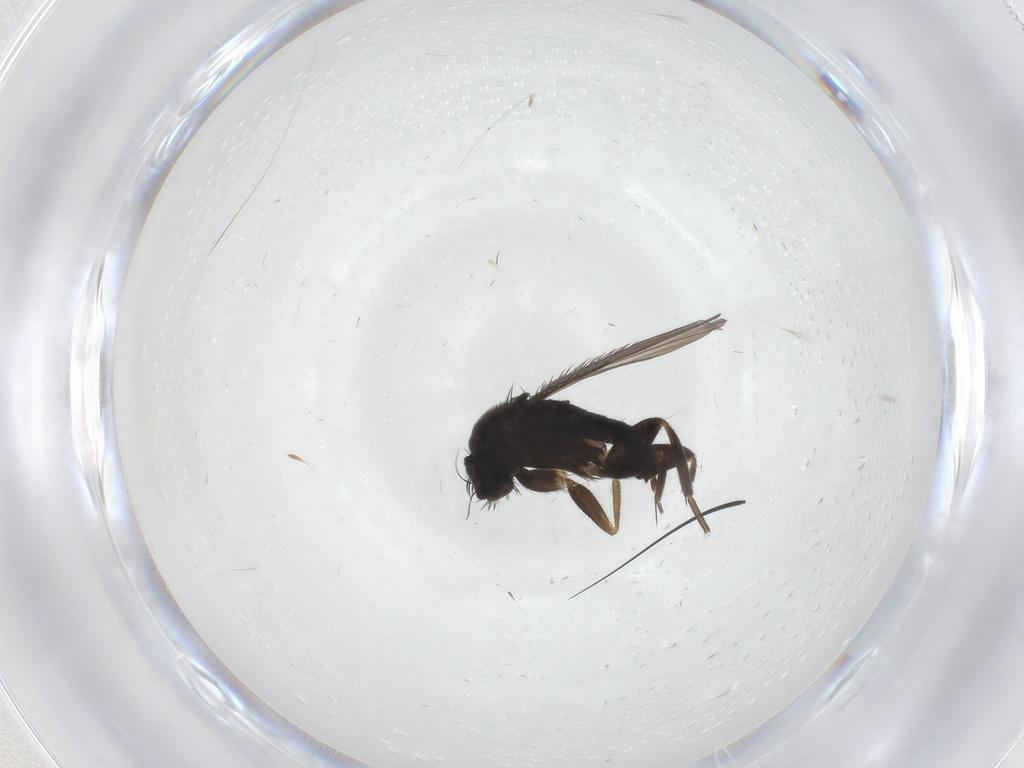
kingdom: Animalia
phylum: Arthropoda
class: Insecta
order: Diptera
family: Phoridae
